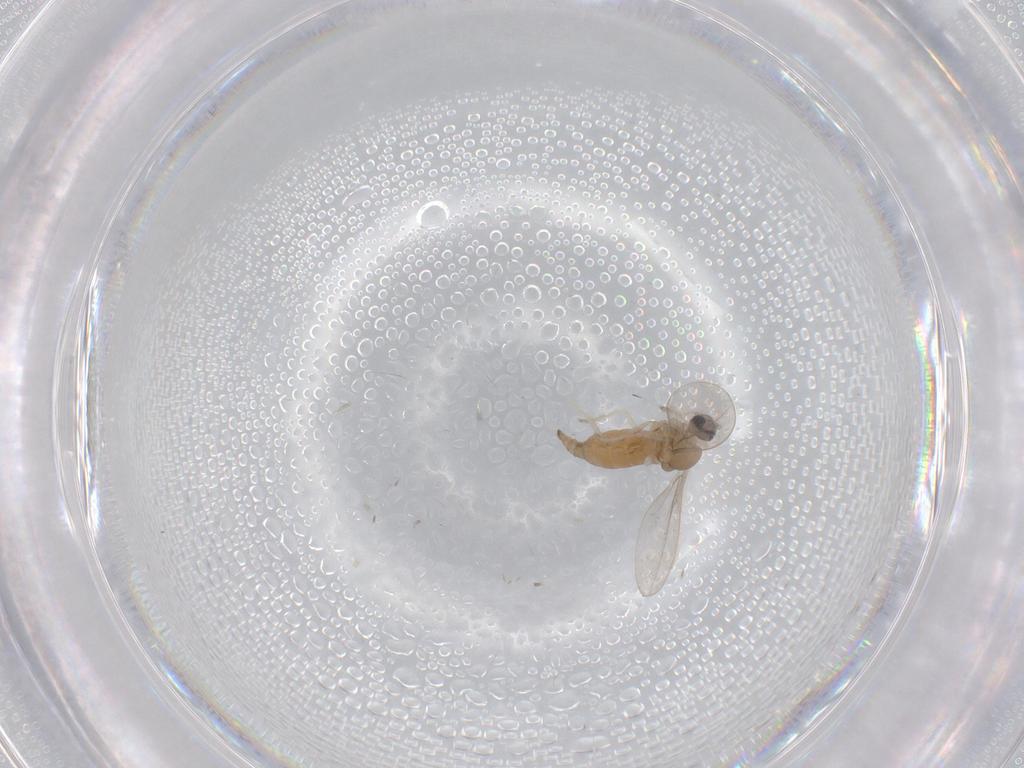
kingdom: Animalia
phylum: Arthropoda
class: Insecta
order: Diptera
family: Cecidomyiidae
